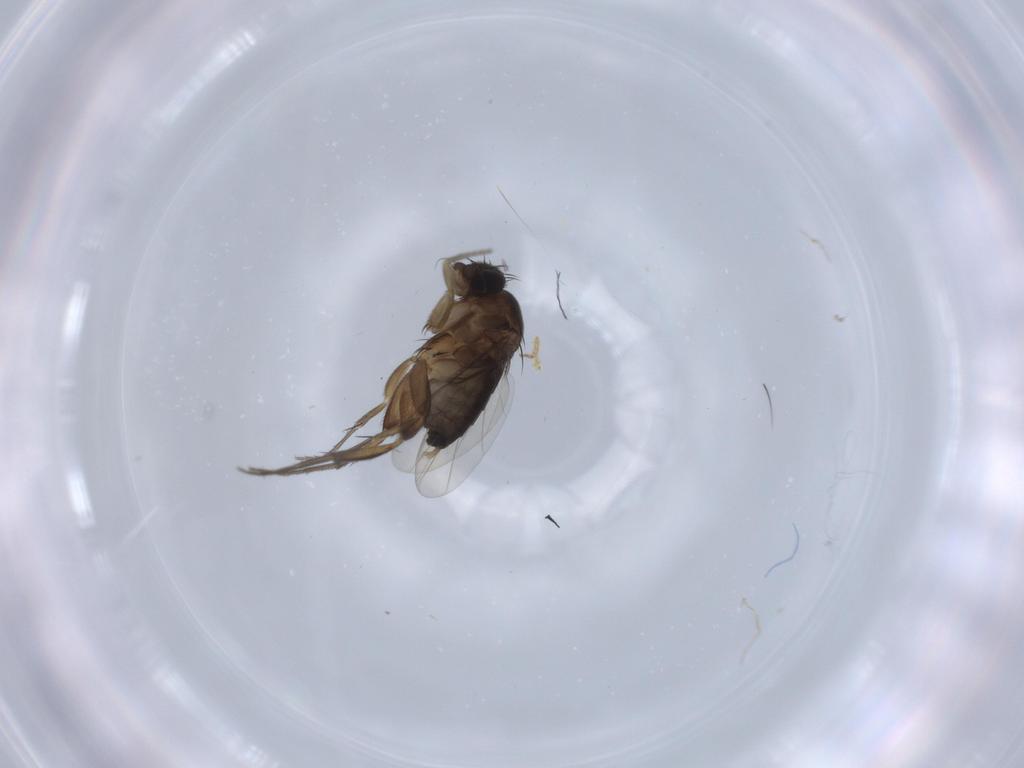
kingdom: Animalia
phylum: Arthropoda
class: Insecta
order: Diptera
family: Phoridae
